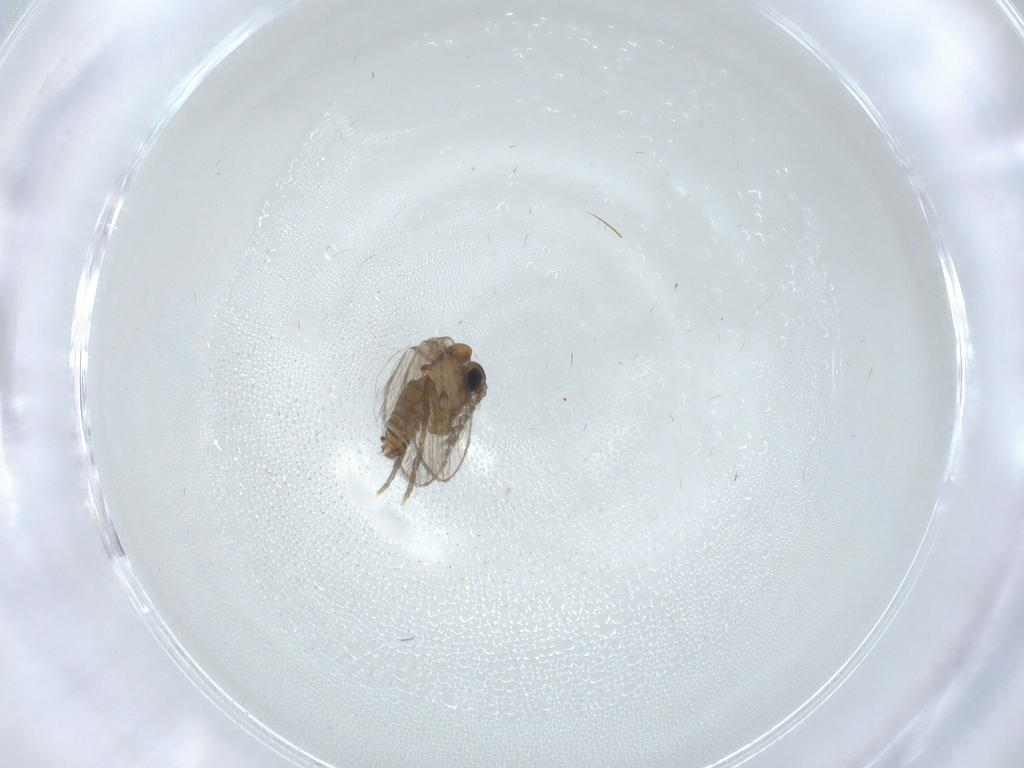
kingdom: Animalia
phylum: Arthropoda
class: Insecta
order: Diptera
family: Psychodidae
